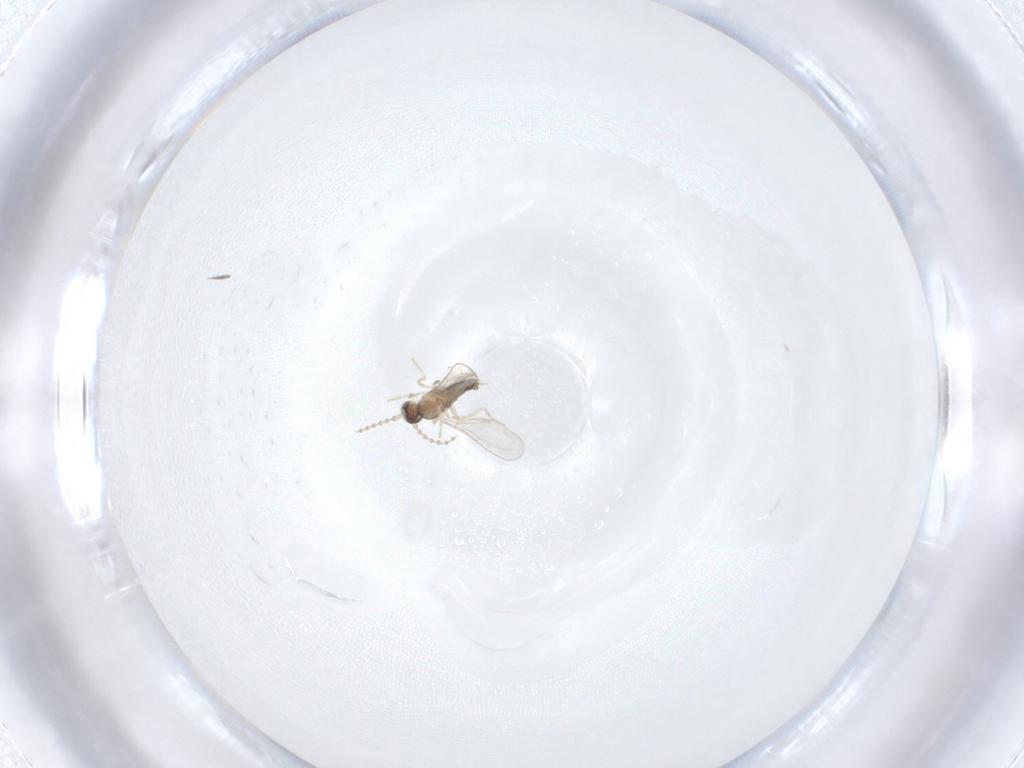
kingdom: Animalia
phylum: Arthropoda
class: Insecta
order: Diptera
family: Cecidomyiidae
